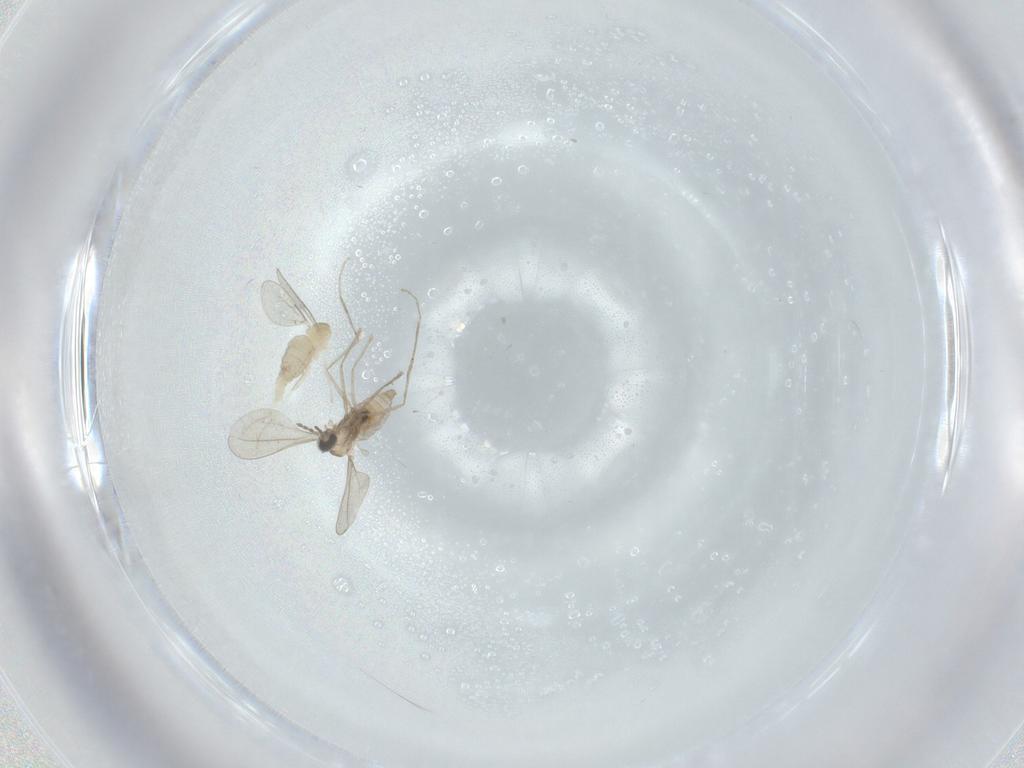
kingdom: Animalia
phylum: Arthropoda
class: Insecta
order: Diptera
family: Cecidomyiidae
